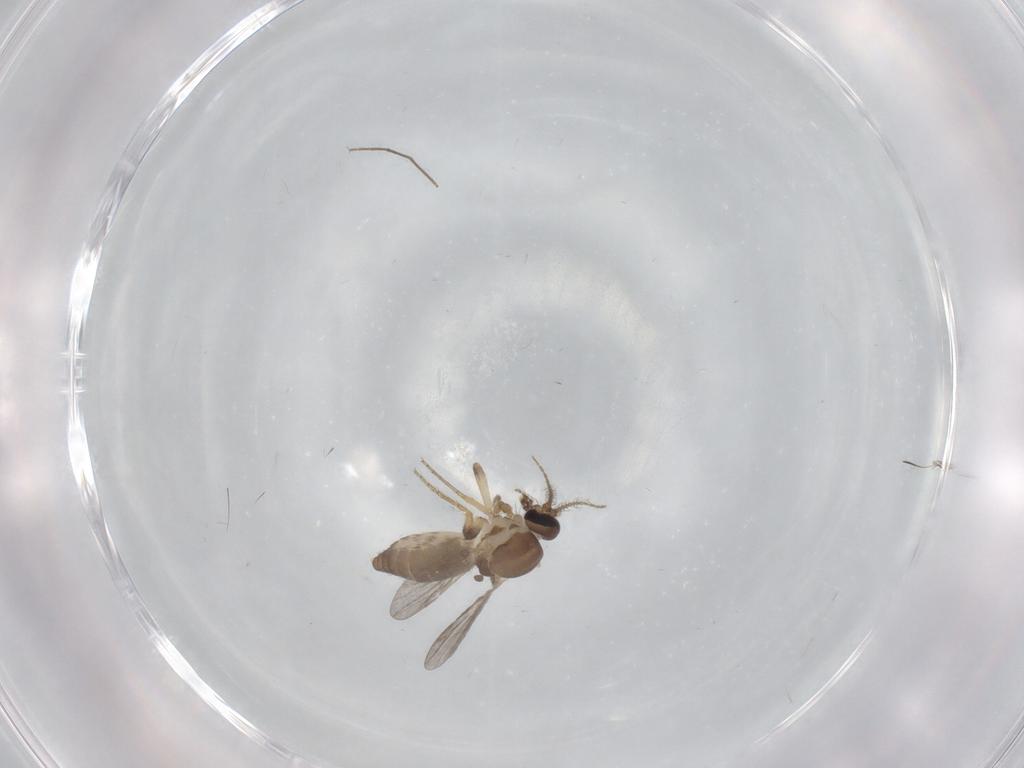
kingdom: Animalia
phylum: Arthropoda
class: Insecta
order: Diptera
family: Ceratopogonidae
